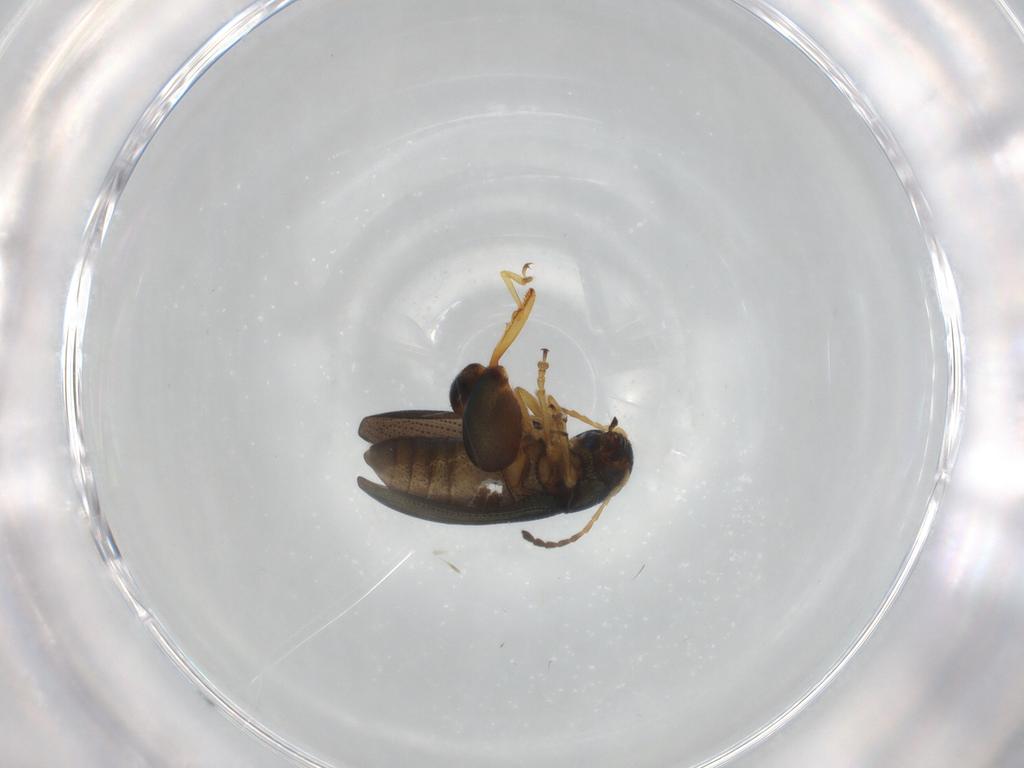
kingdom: Animalia
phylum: Arthropoda
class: Insecta
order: Coleoptera
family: Chrysomelidae
